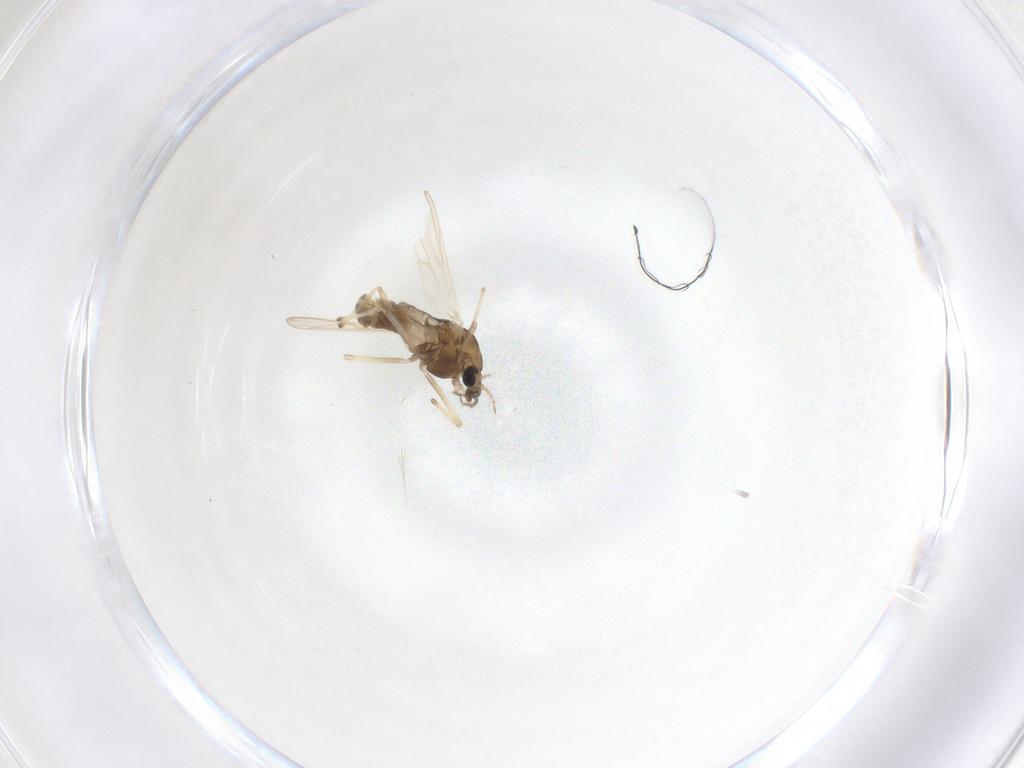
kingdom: Animalia
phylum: Arthropoda
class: Insecta
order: Diptera
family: Chironomidae
